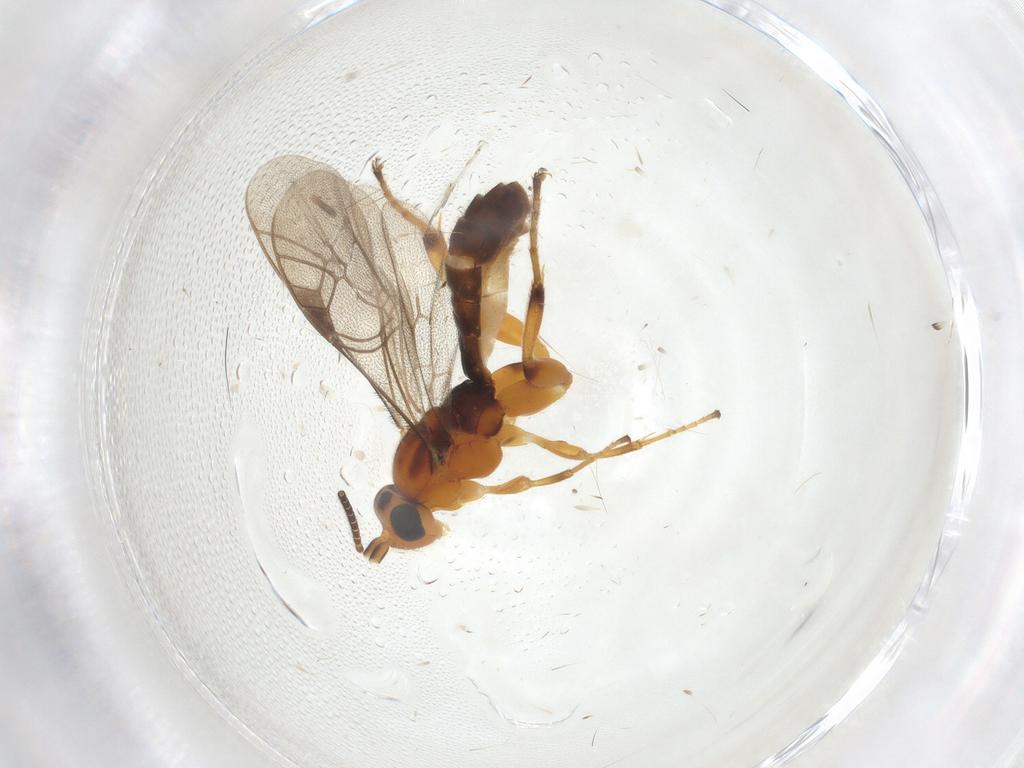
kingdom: Animalia
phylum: Arthropoda
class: Insecta
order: Hymenoptera
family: Ichneumonidae
